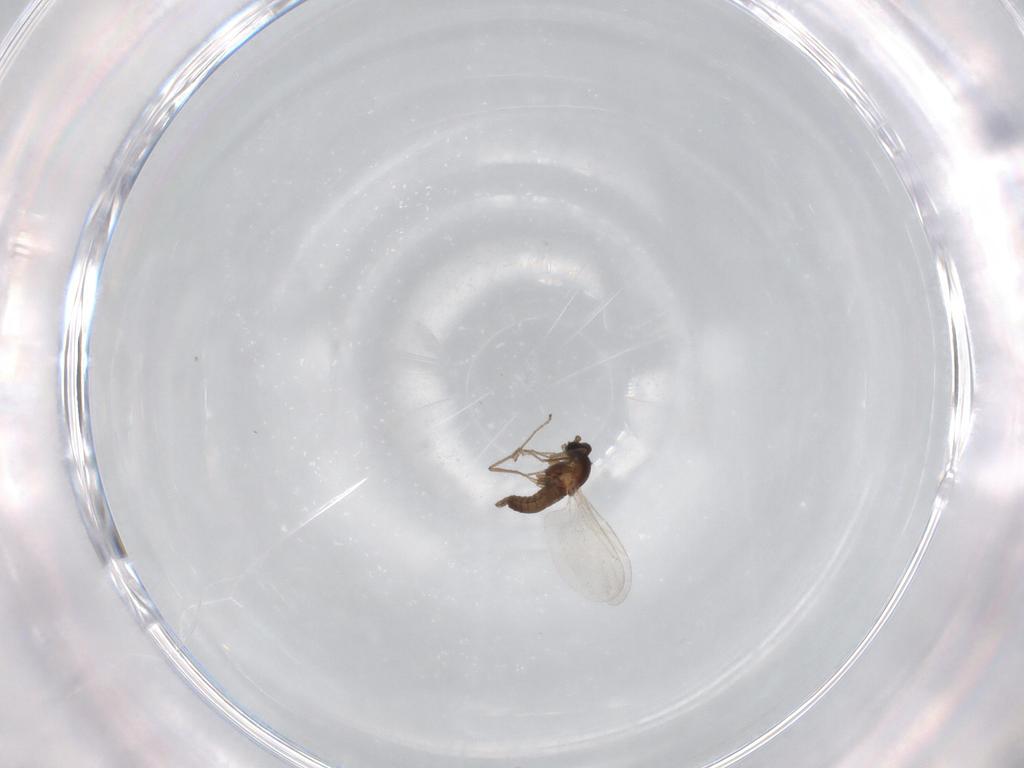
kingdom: Animalia
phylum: Arthropoda
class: Insecta
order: Diptera
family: Cecidomyiidae
